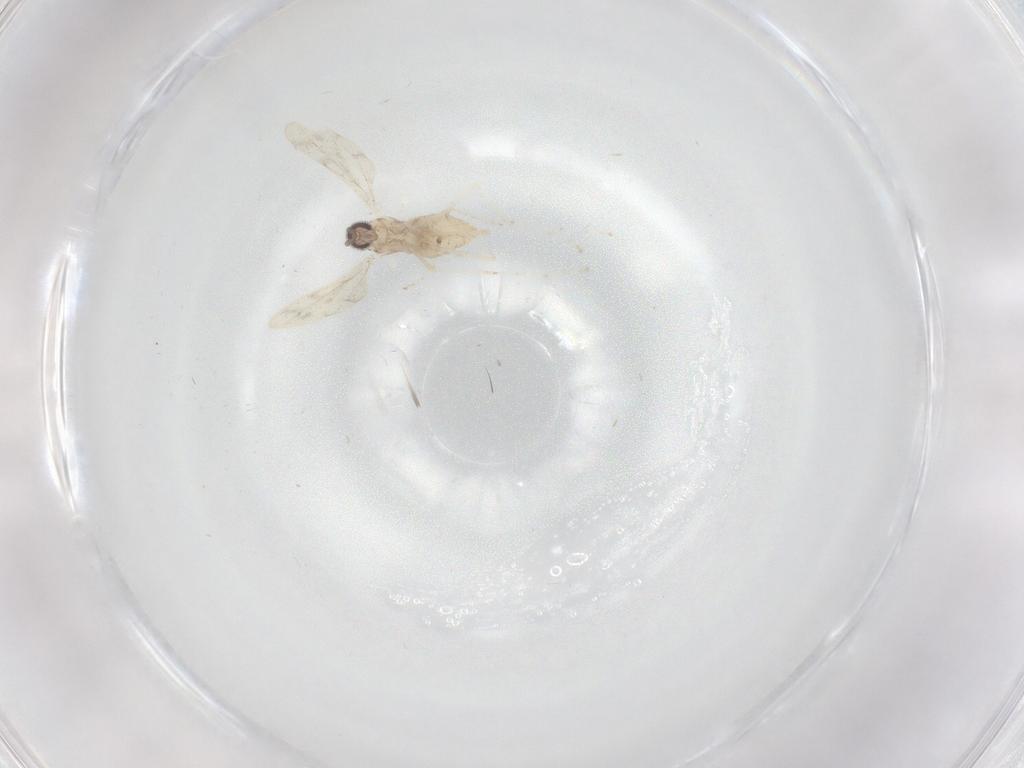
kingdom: Animalia
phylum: Arthropoda
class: Insecta
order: Diptera
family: Cecidomyiidae
